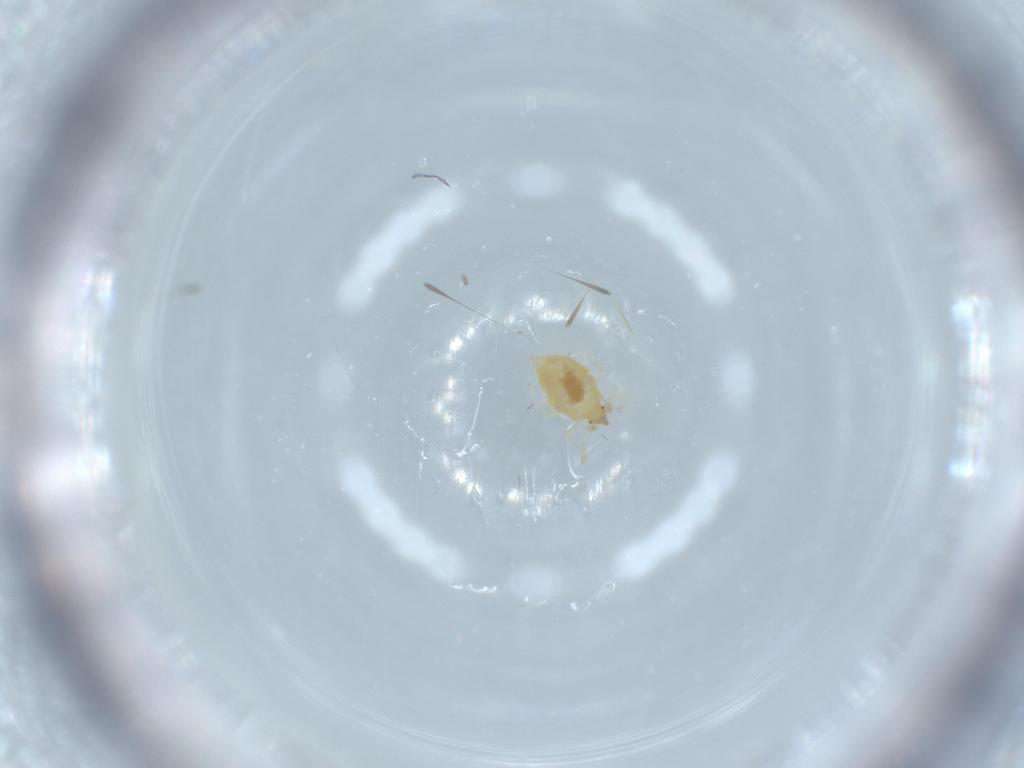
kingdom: Animalia
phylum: Arthropoda
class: Insecta
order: Neuroptera
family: Coniopterygidae
